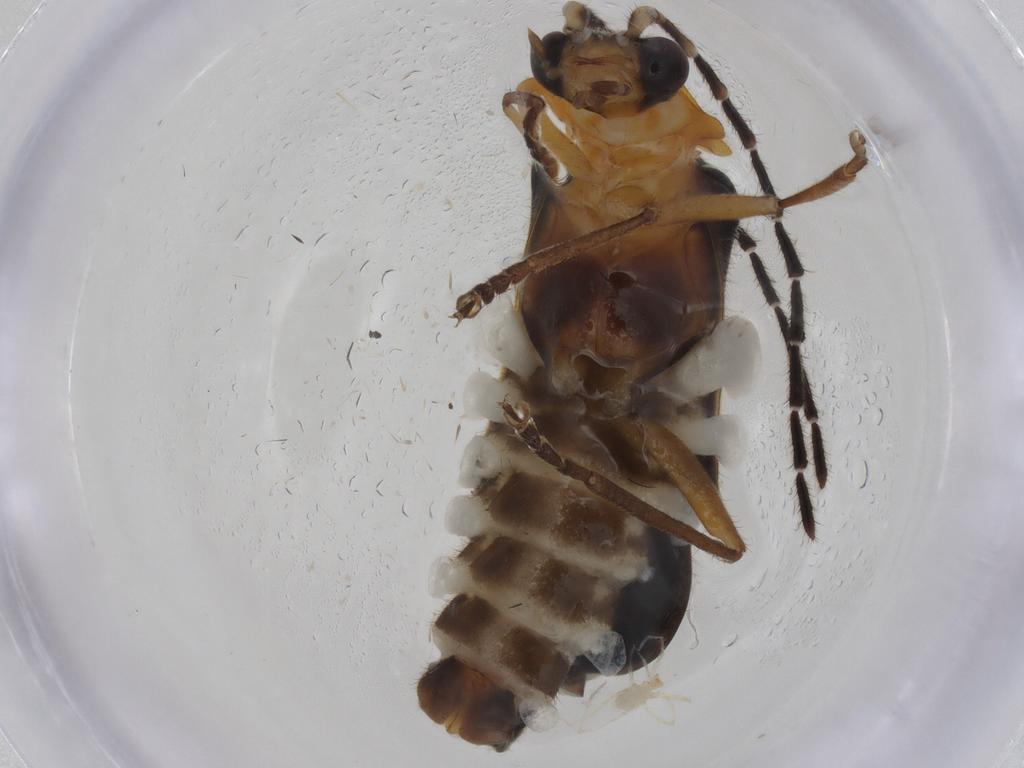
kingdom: Animalia
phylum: Arthropoda
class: Insecta
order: Coleoptera
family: Cantharidae
